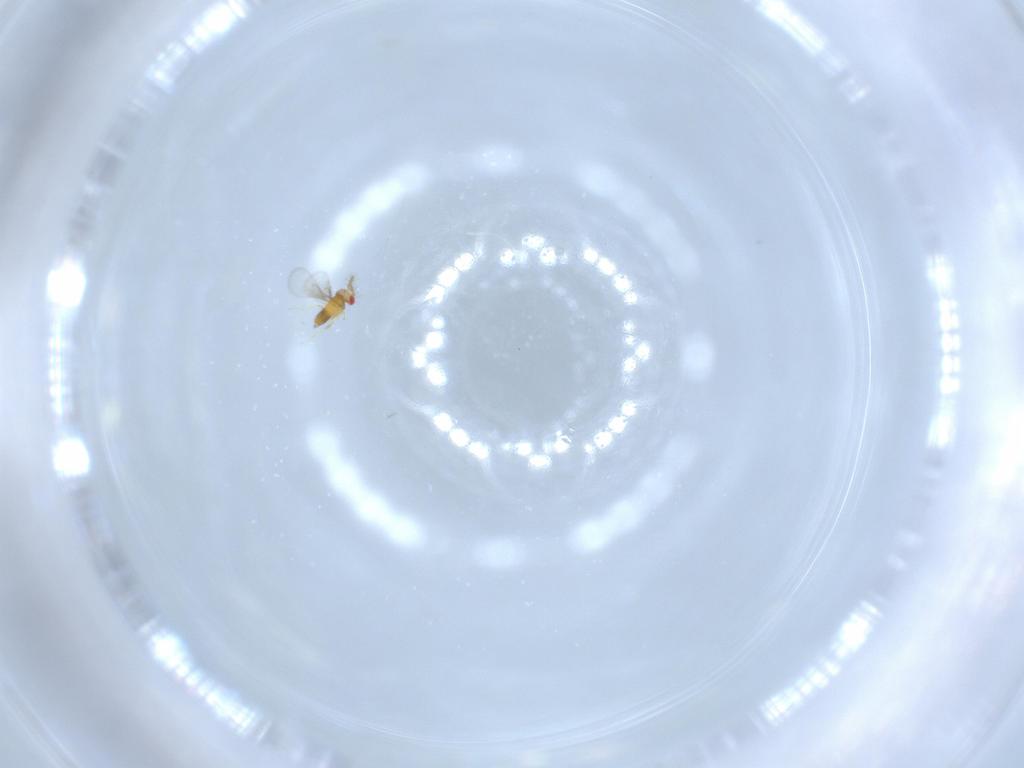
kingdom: Animalia
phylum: Arthropoda
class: Insecta
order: Hymenoptera
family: Trichogrammatidae
